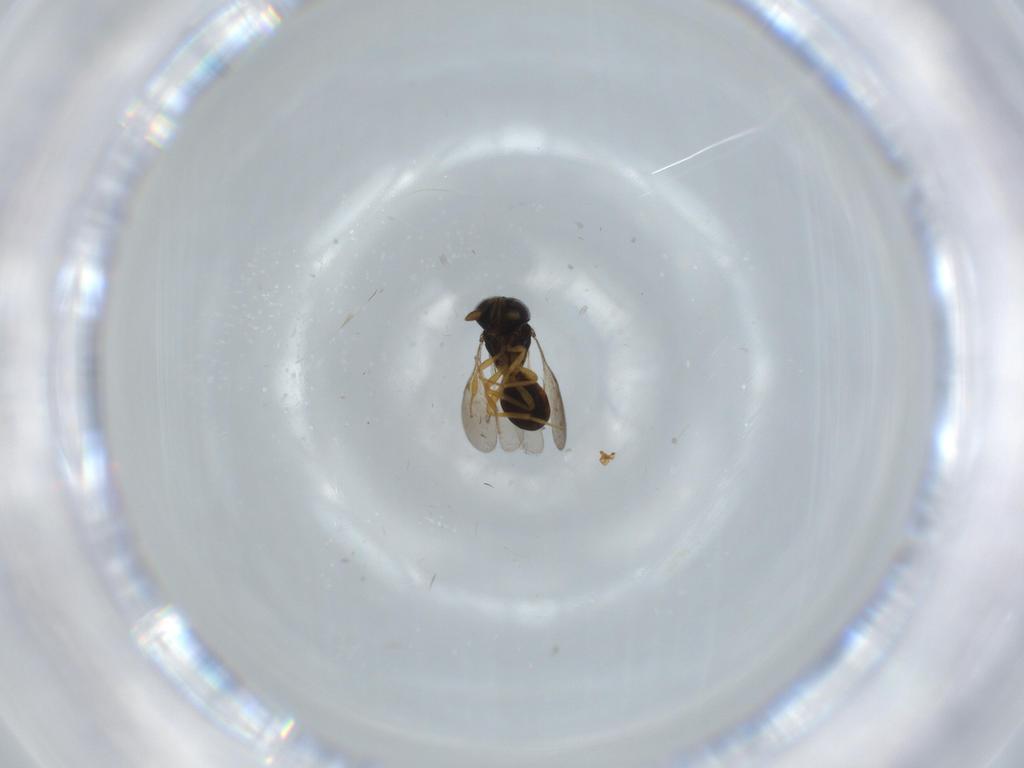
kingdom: Animalia
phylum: Arthropoda
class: Insecta
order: Hymenoptera
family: Scelionidae
